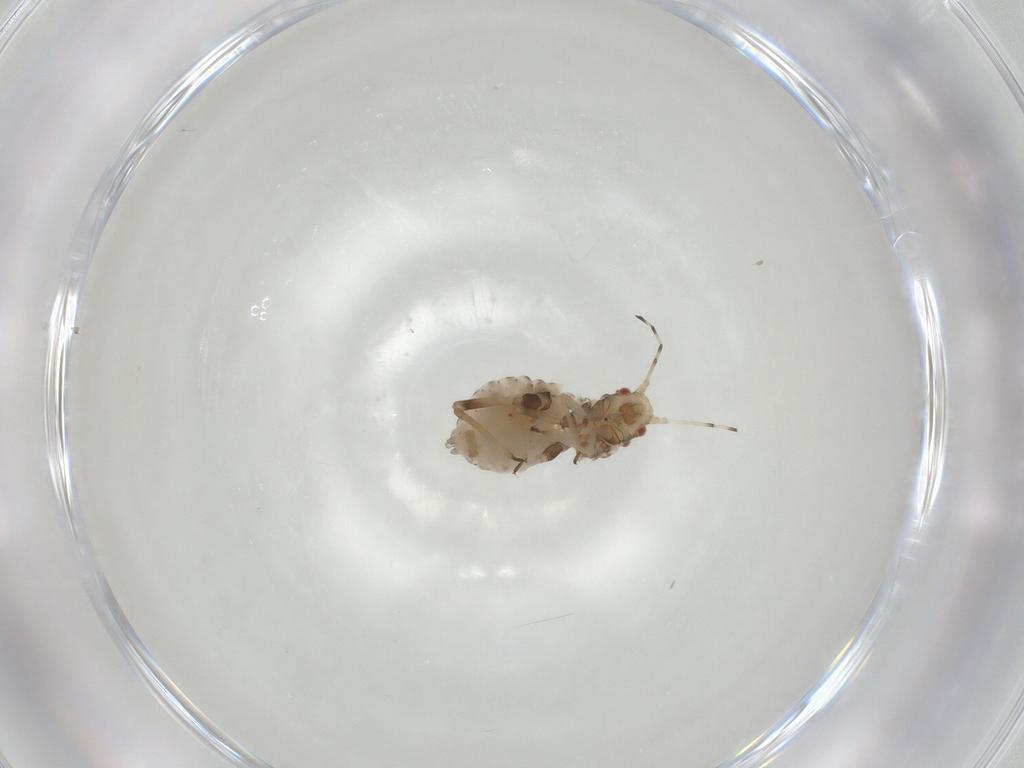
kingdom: Animalia
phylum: Arthropoda
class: Insecta
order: Hemiptera
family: Aphididae
